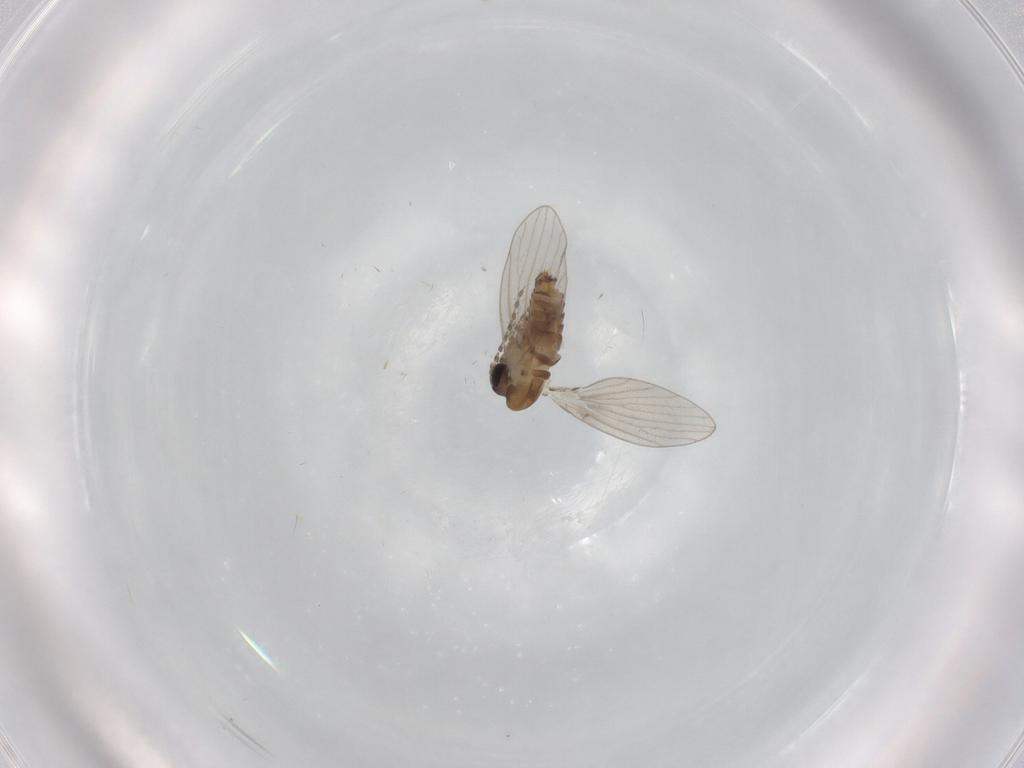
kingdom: Animalia
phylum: Arthropoda
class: Insecta
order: Diptera
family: Psychodidae
